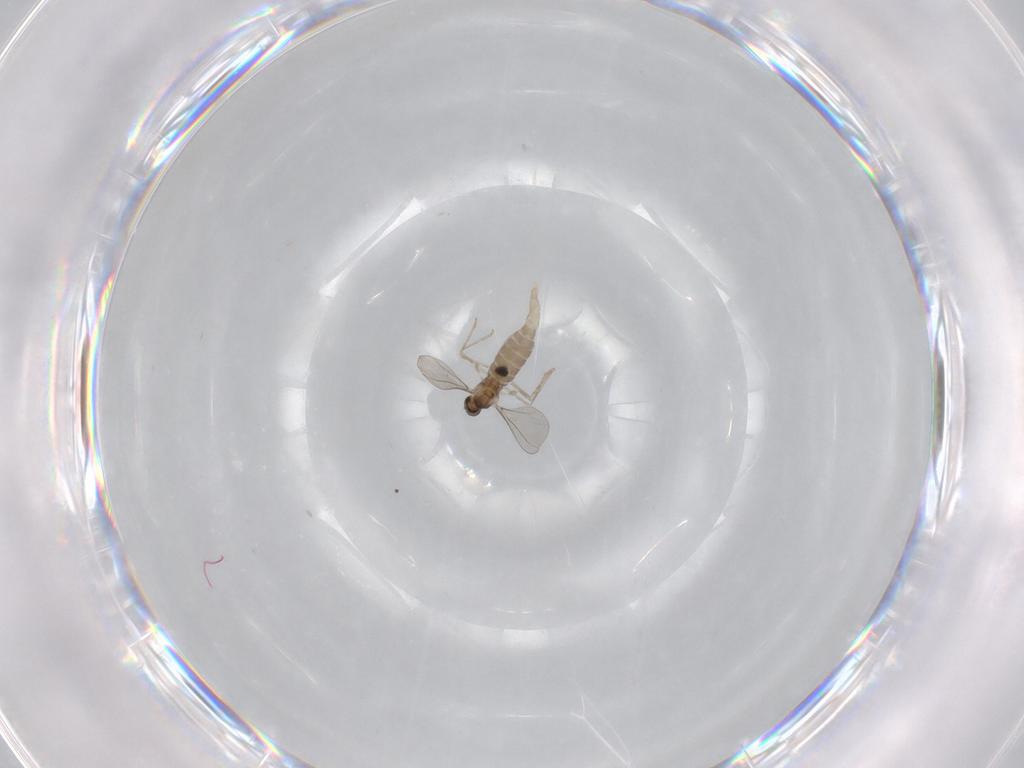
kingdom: Animalia
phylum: Arthropoda
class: Insecta
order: Diptera
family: Chironomidae
